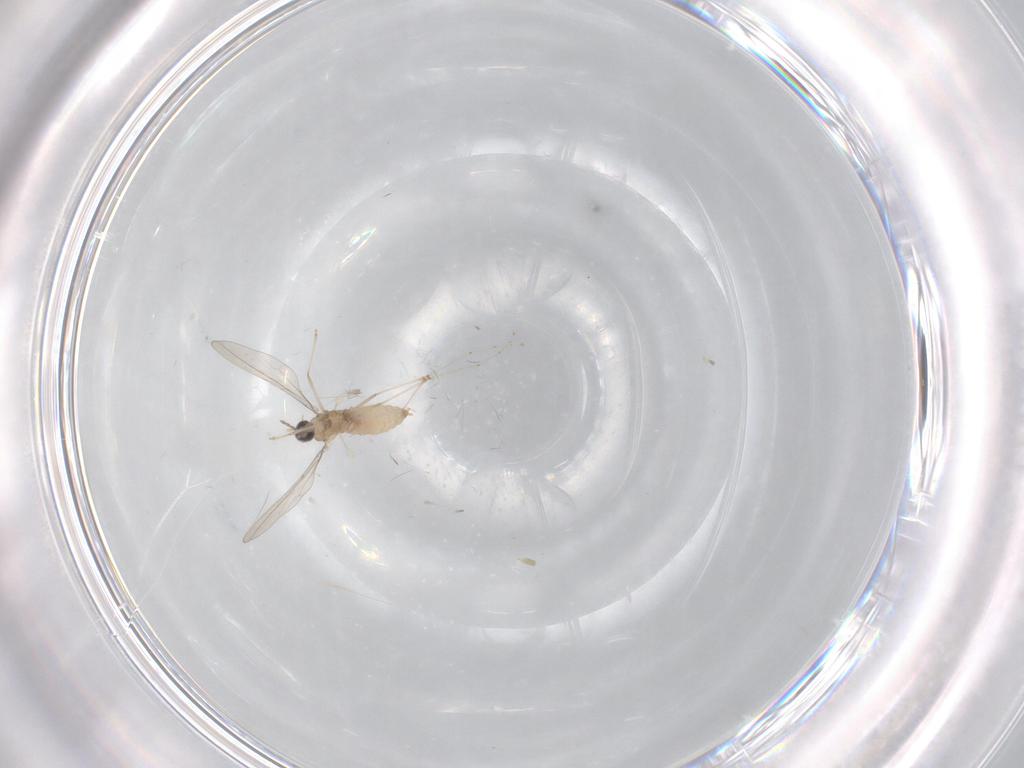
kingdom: Animalia
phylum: Arthropoda
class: Insecta
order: Diptera
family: Cecidomyiidae
